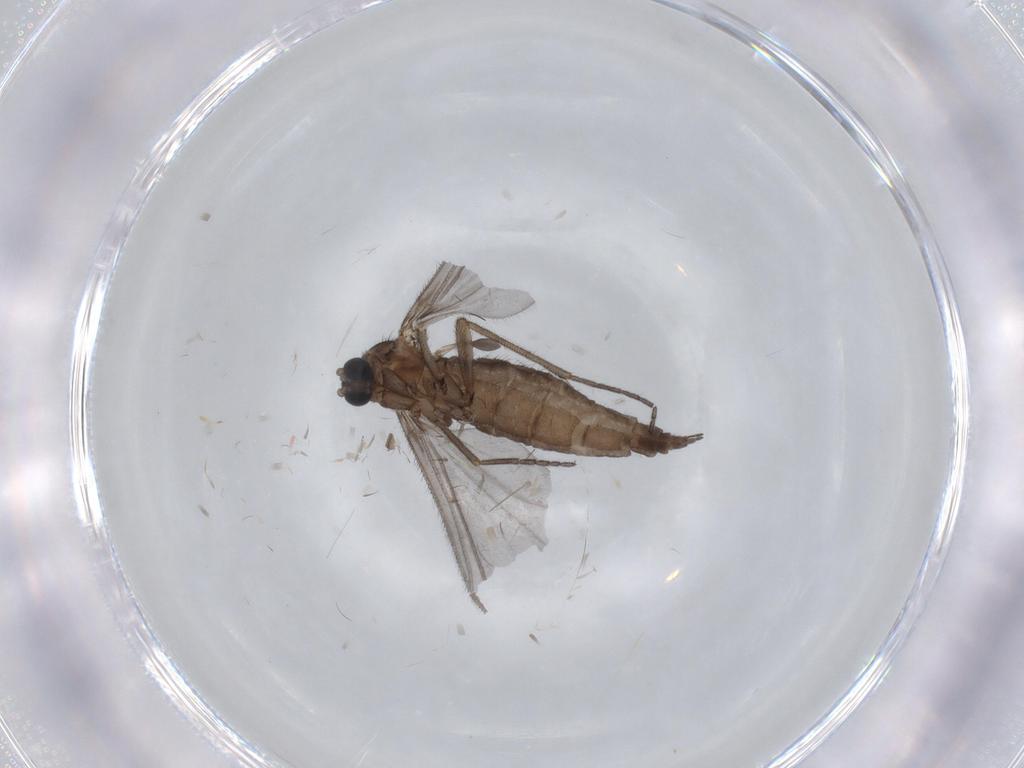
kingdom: Animalia
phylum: Arthropoda
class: Insecta
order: Diptera
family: Sciaridae
